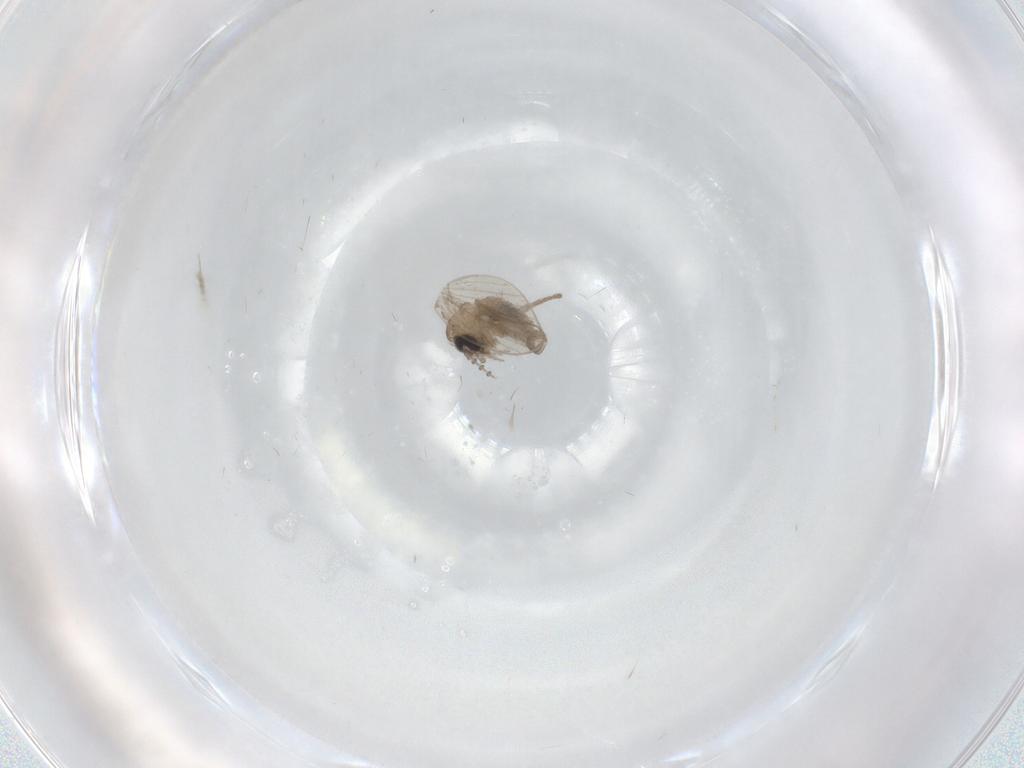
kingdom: Animalia
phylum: Arthropoda
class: Insecta
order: Diptera
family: Cecidomyiidae
